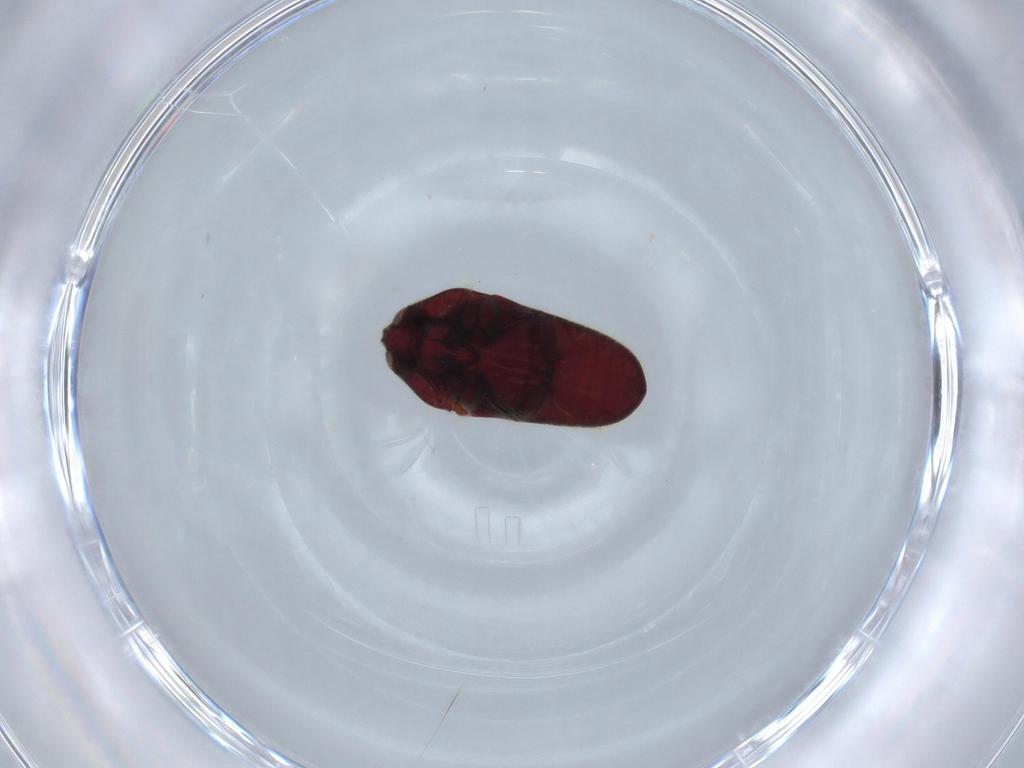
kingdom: Animalia
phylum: Arthropoda
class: Insecta
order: Coleoptera
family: Throscidae
